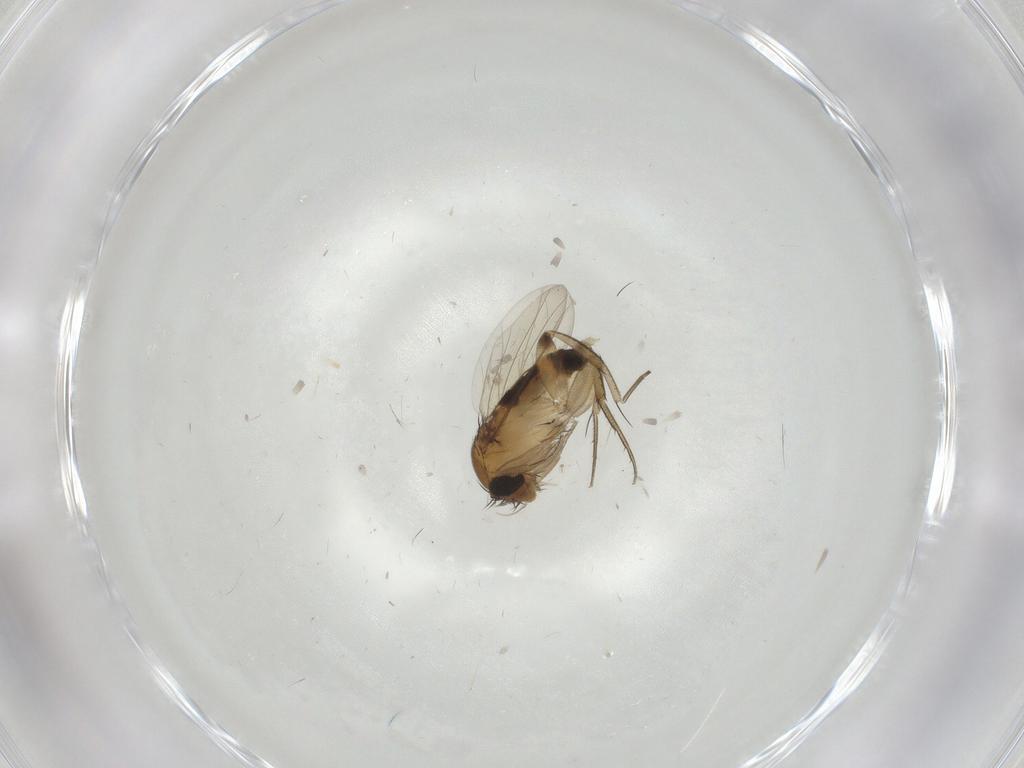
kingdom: Animalia
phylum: Arthropoda
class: Insecta
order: Diptera
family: Phoridae
